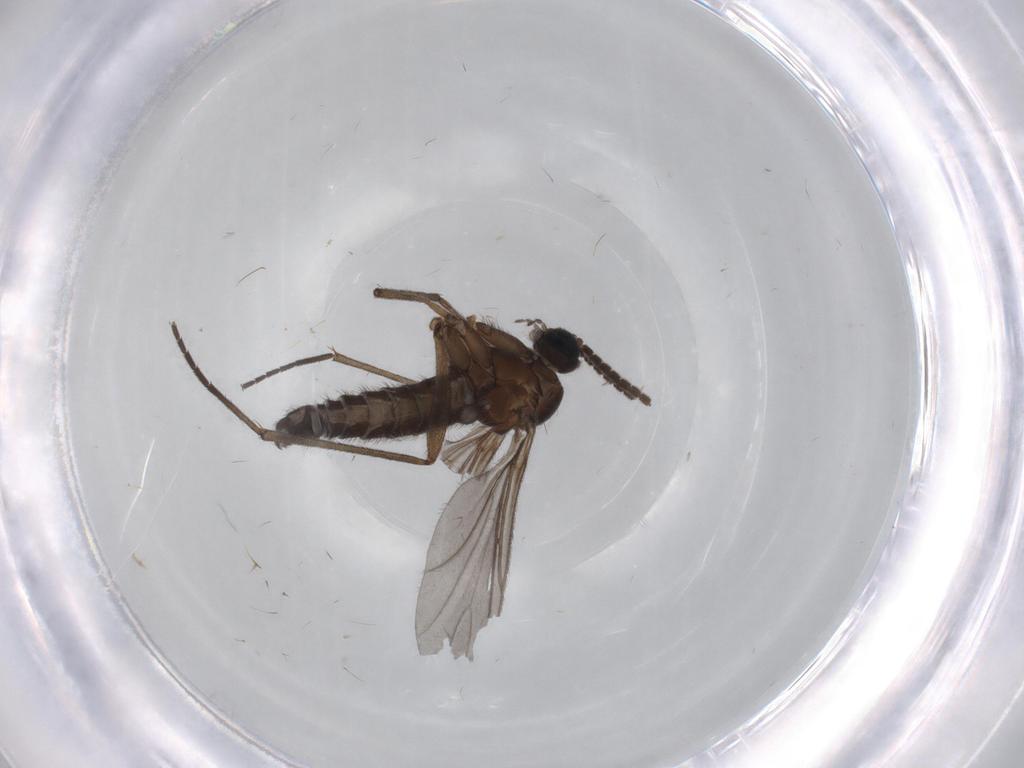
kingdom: Animalia
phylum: Arthropoda
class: Insecta
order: Diptera
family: Sciaridae
